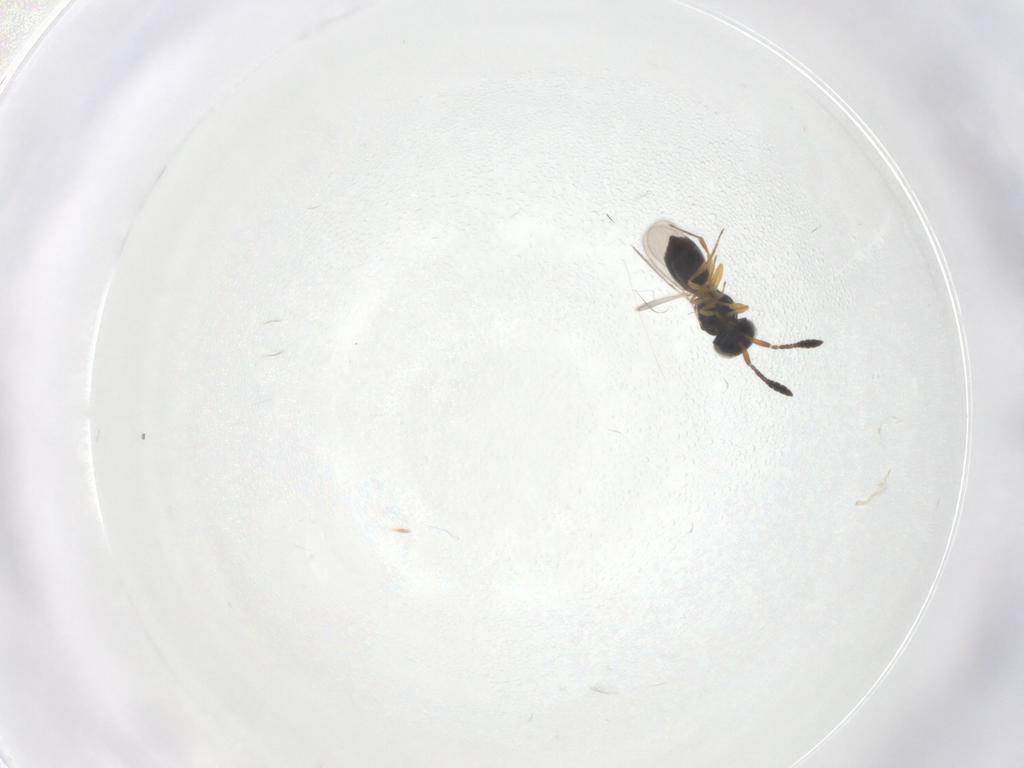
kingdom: Animalia
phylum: Arthropoda
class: Insecta
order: Hymenoptera
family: Scelionidae
